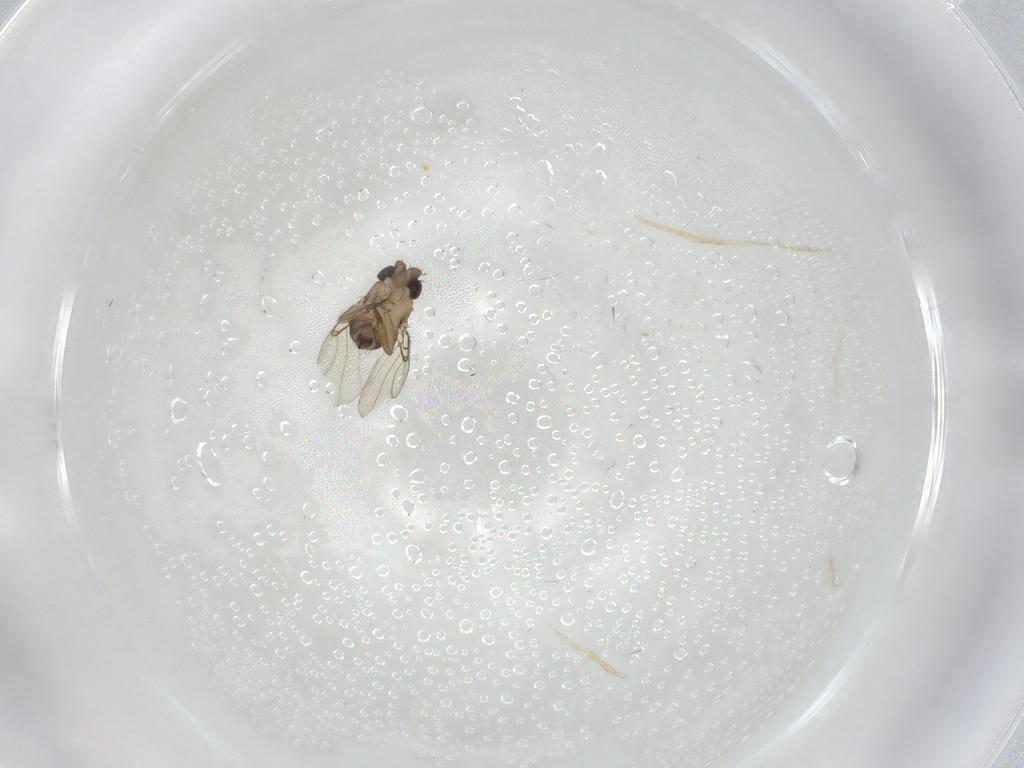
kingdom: Animalia
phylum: Arthropoda
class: Insecta
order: Diptera
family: Cecidomyiidae
